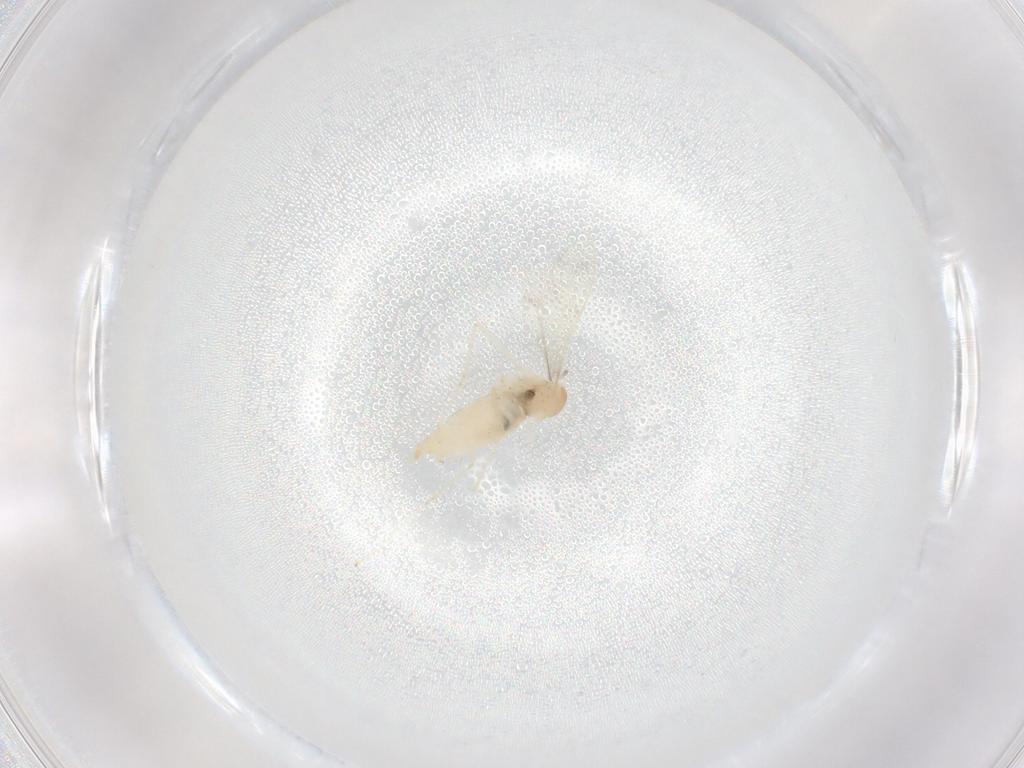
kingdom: Animalia
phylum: Arthropoda
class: Insecta
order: Diptera
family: Cecidomyiidae
